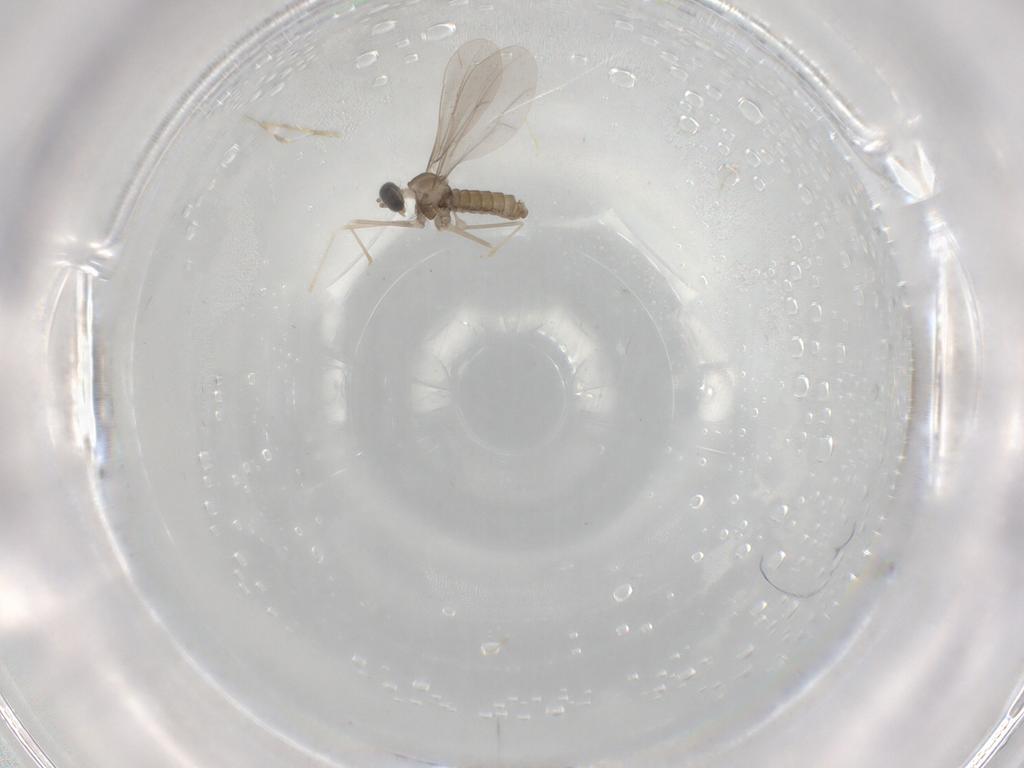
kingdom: Animalia
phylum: Arthropoda
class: Insecta
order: Diptera
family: Cecidomyiidae
